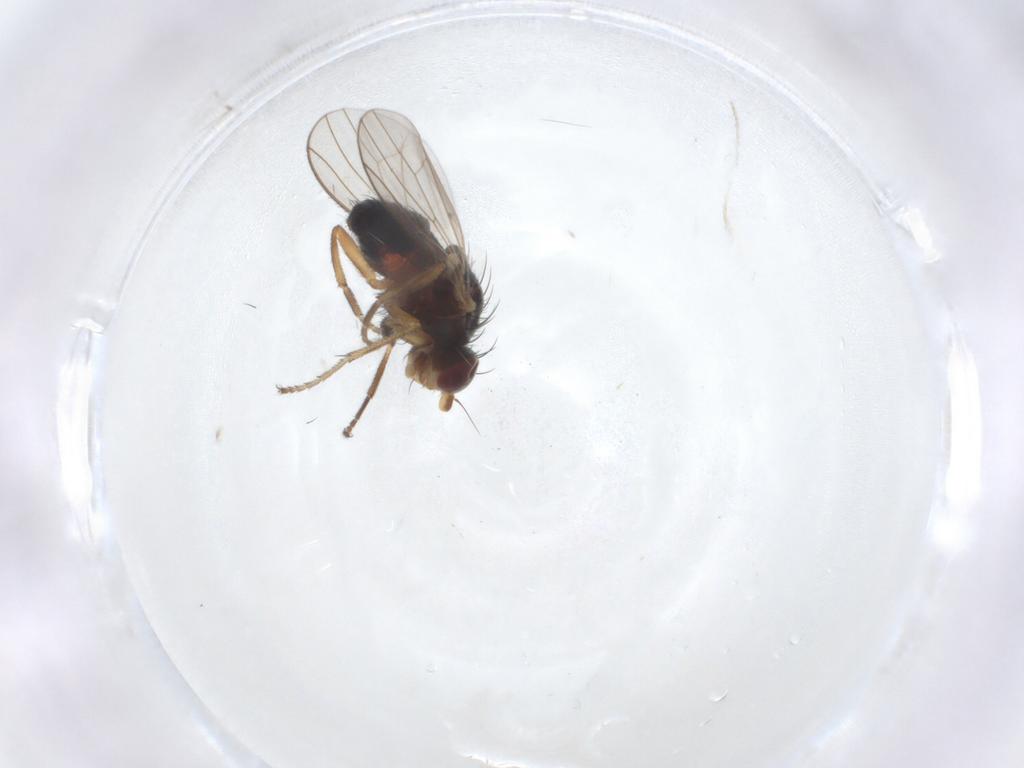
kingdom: Animalia
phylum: Arthropoda
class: Insecta
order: Diptera
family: Heleomyzidae
